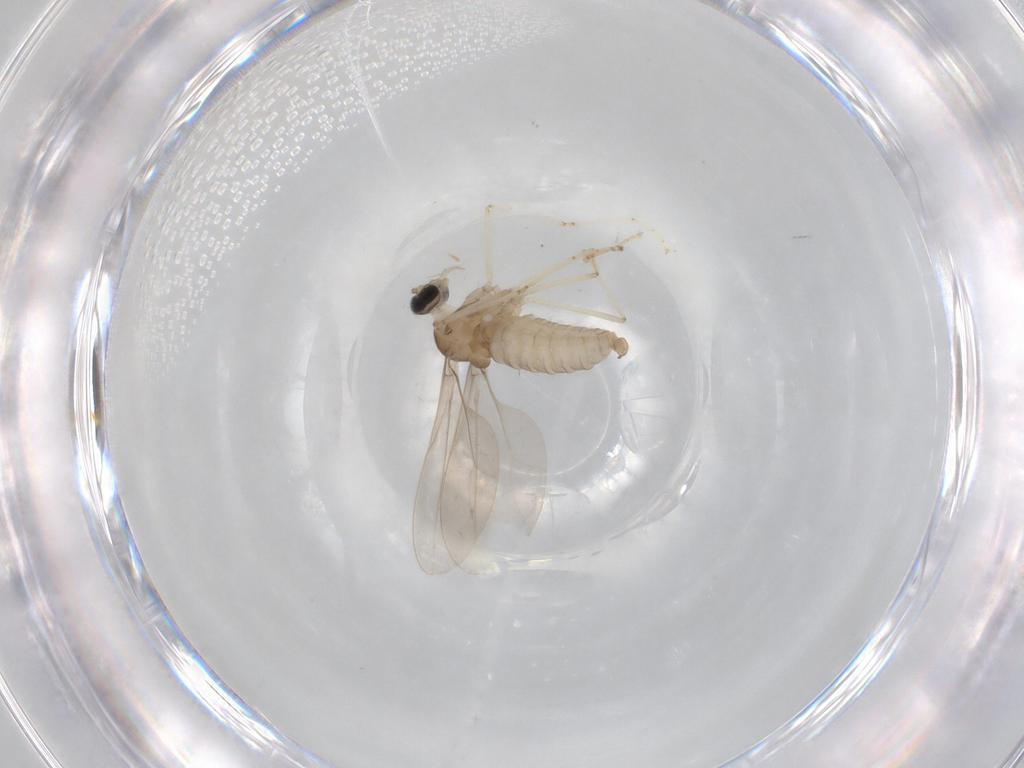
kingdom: Animalia
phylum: Arthropoda
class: Insecta
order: Diptera
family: Cecidomyiidae
